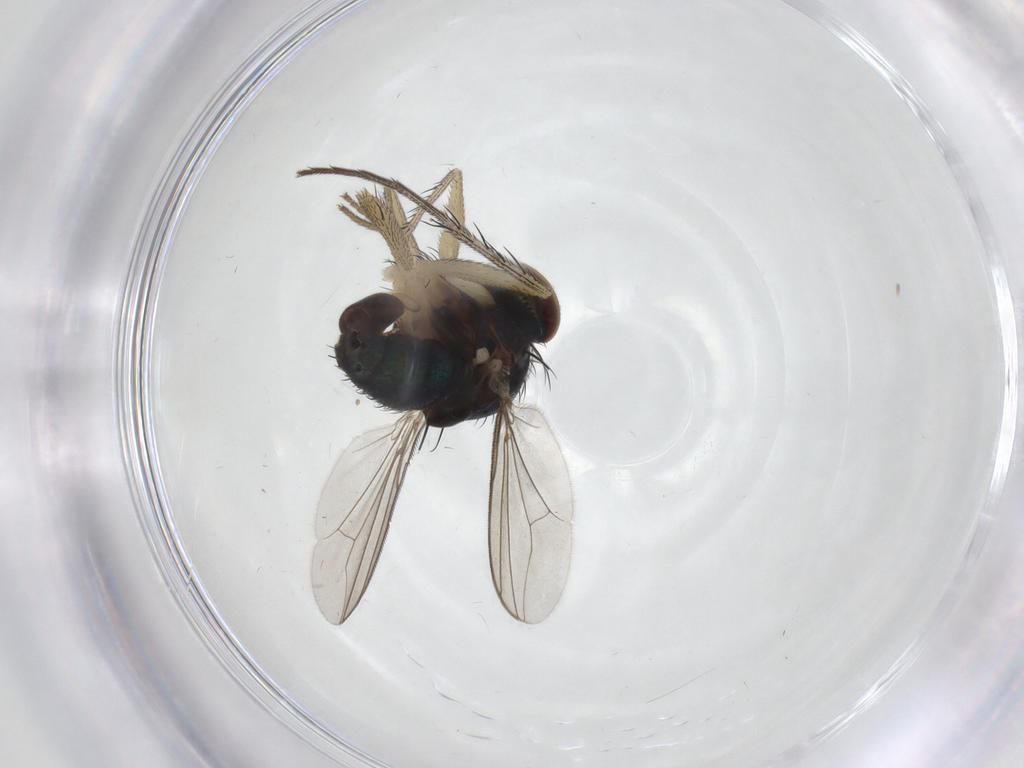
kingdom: Animalia
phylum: Arthropoda
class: Insecta
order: Diptera
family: Dolichopodidae
